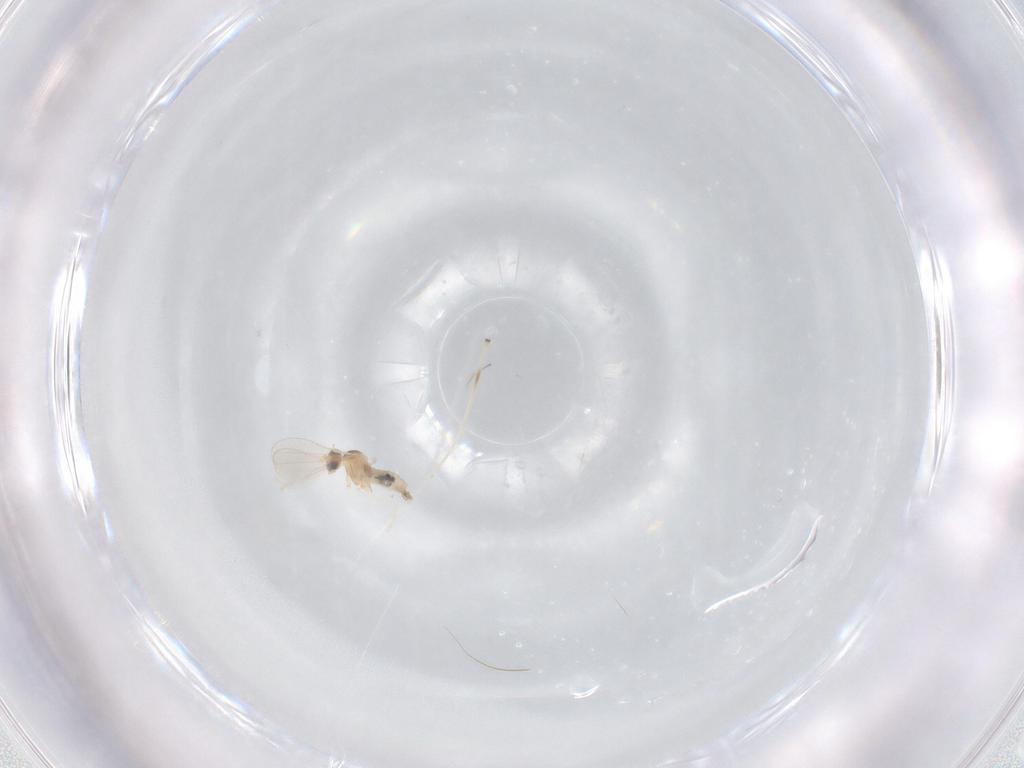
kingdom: Animalia
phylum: Arthropoda
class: Insecta
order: Diptera
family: Cecidomyiidae
